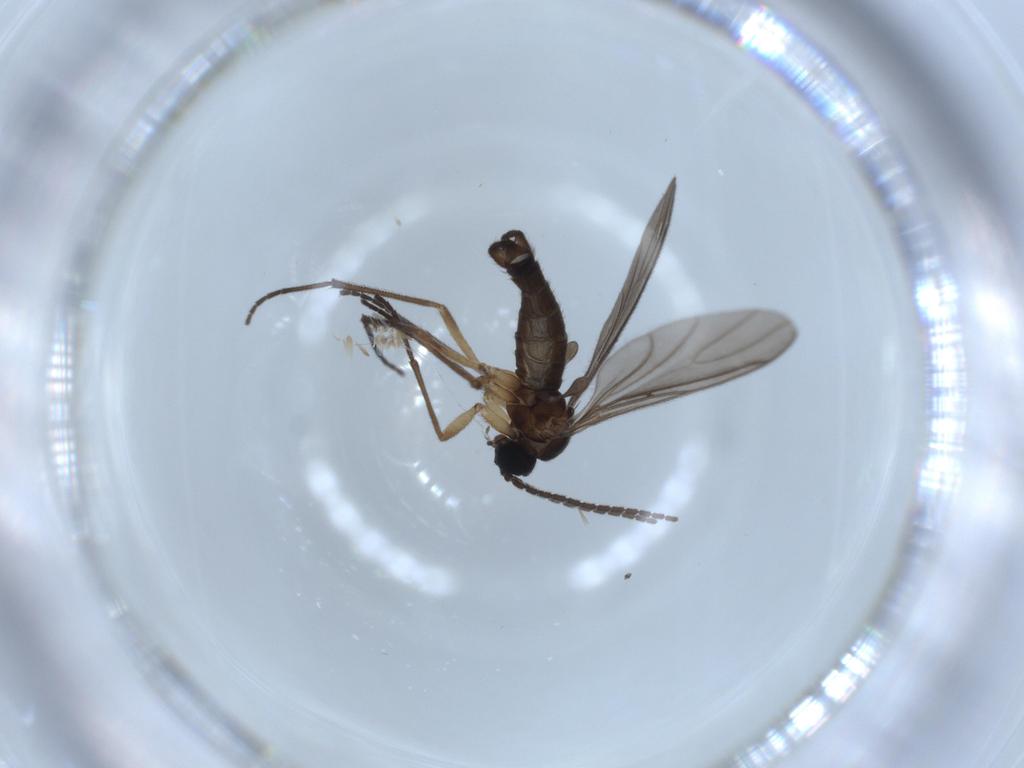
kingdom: Animalia
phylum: Arthropoda
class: Insecta
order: Diptera
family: Sciaridae
